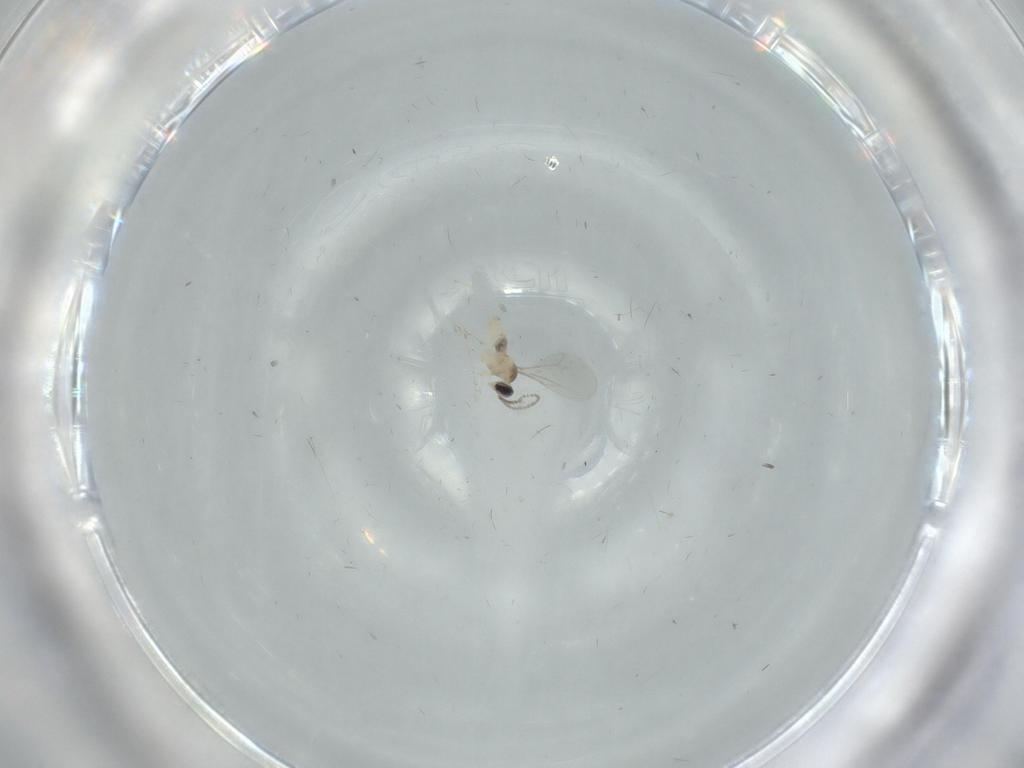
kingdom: Animalia
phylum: Arthropoda
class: Insecta
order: Diptera
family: Cecidomyiidae
